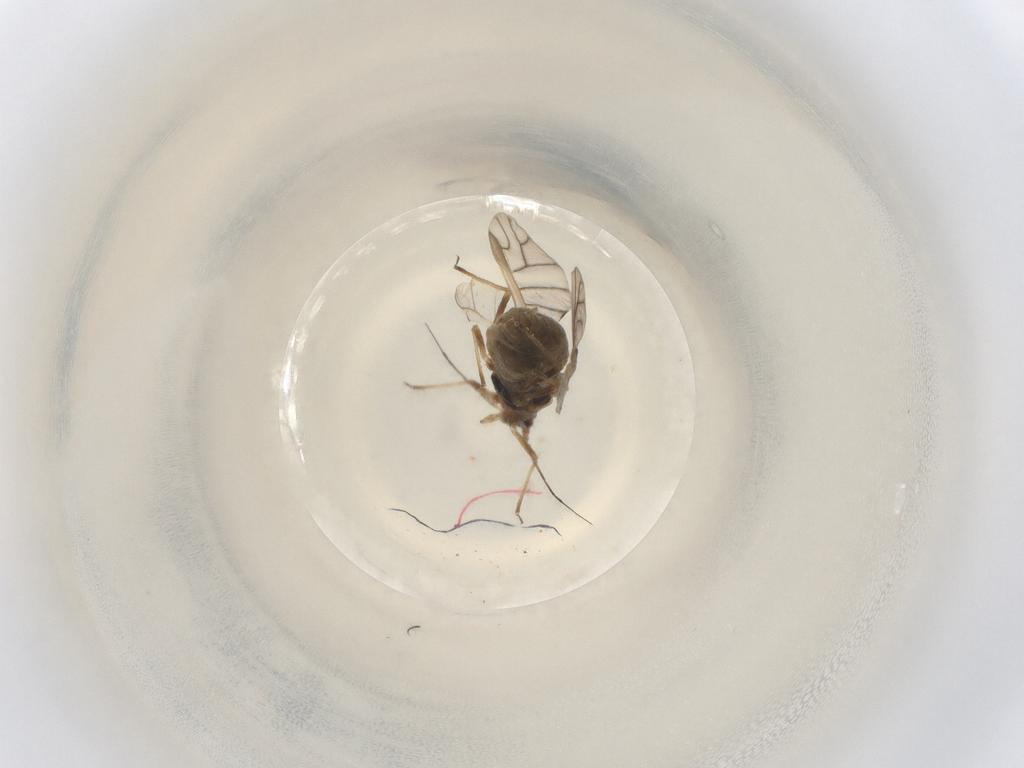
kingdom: Animalia
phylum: Arthropoda
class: Insecta
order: Hemiptera
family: Aphididae
